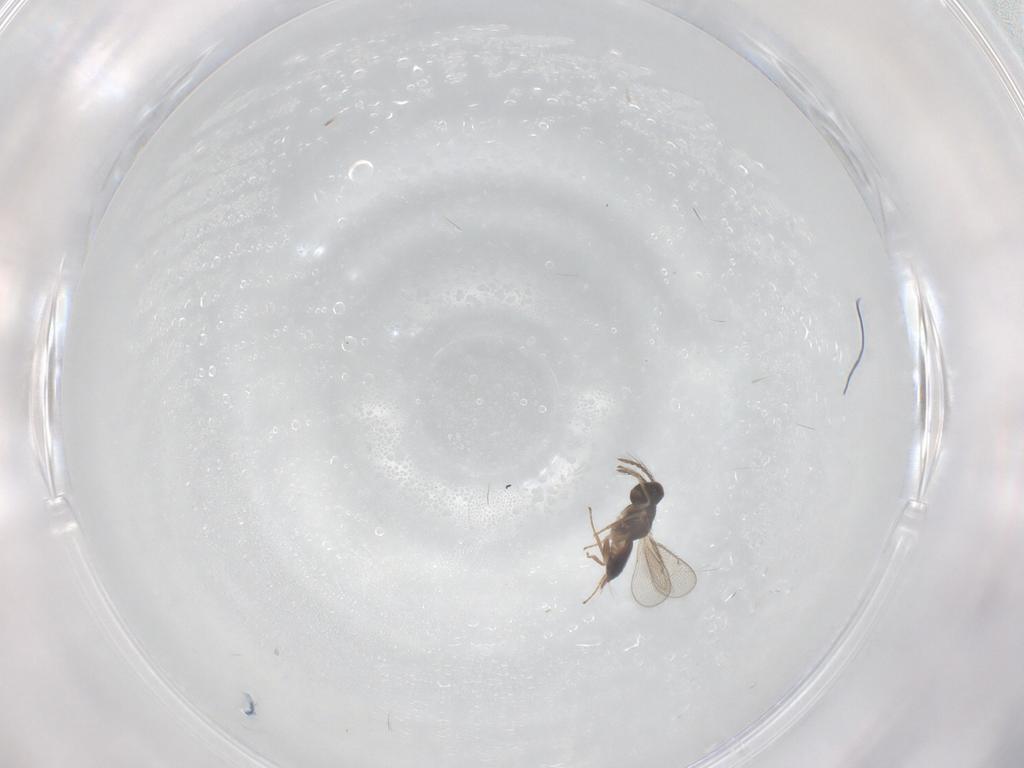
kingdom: Animalia
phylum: Arthropoda
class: Insecta
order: Hymenoptera
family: Eulophidae
